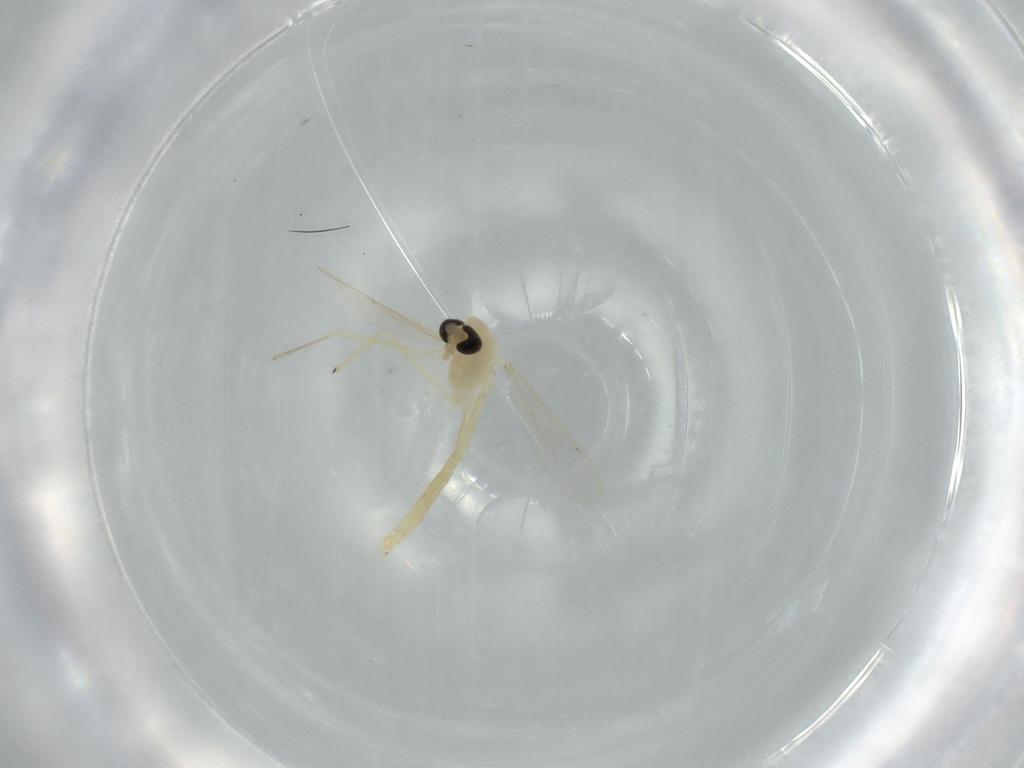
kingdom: Animalia
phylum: Arthropoda
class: Insecta
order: Diptera
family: Chironomidae
